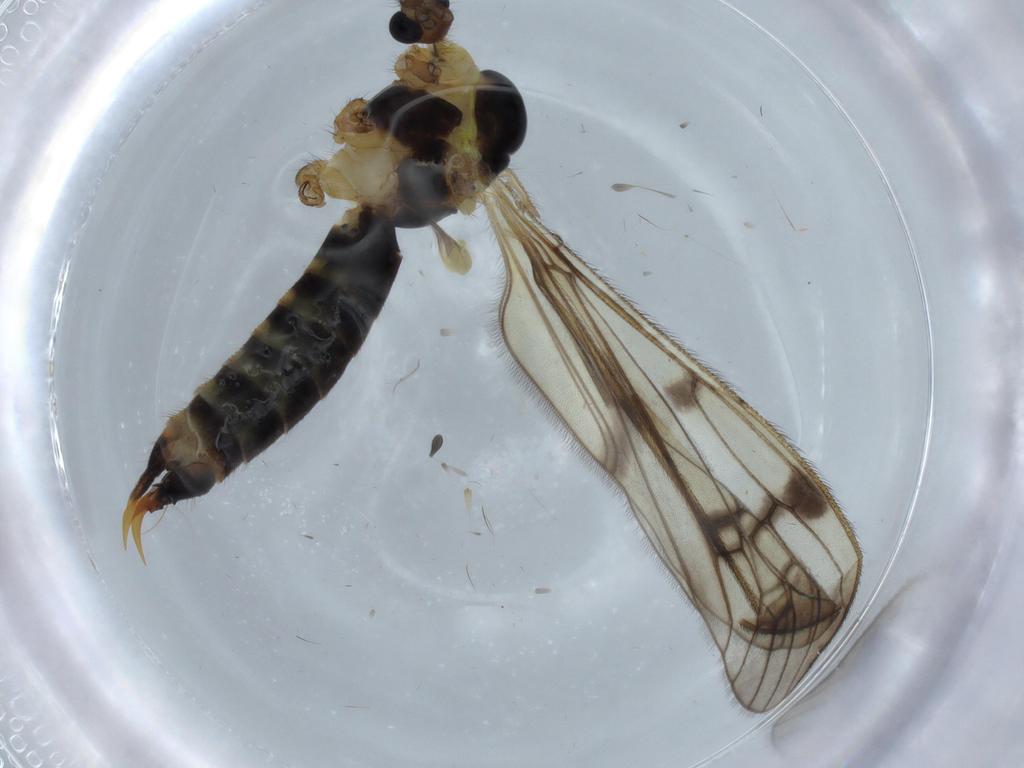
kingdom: Animalia
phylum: Arthropoda
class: Insecta
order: Diptera
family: Limoniidae
